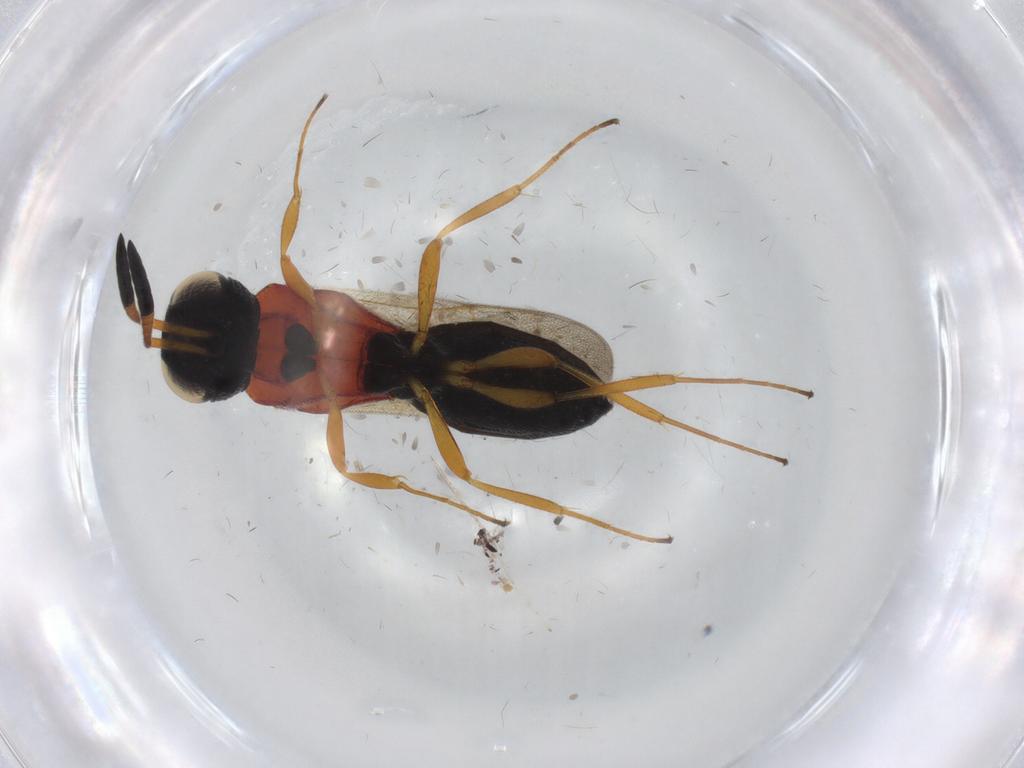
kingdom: Animalia
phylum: Arthropoda
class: Insecta
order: Hymenoptera
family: Scelionidae
